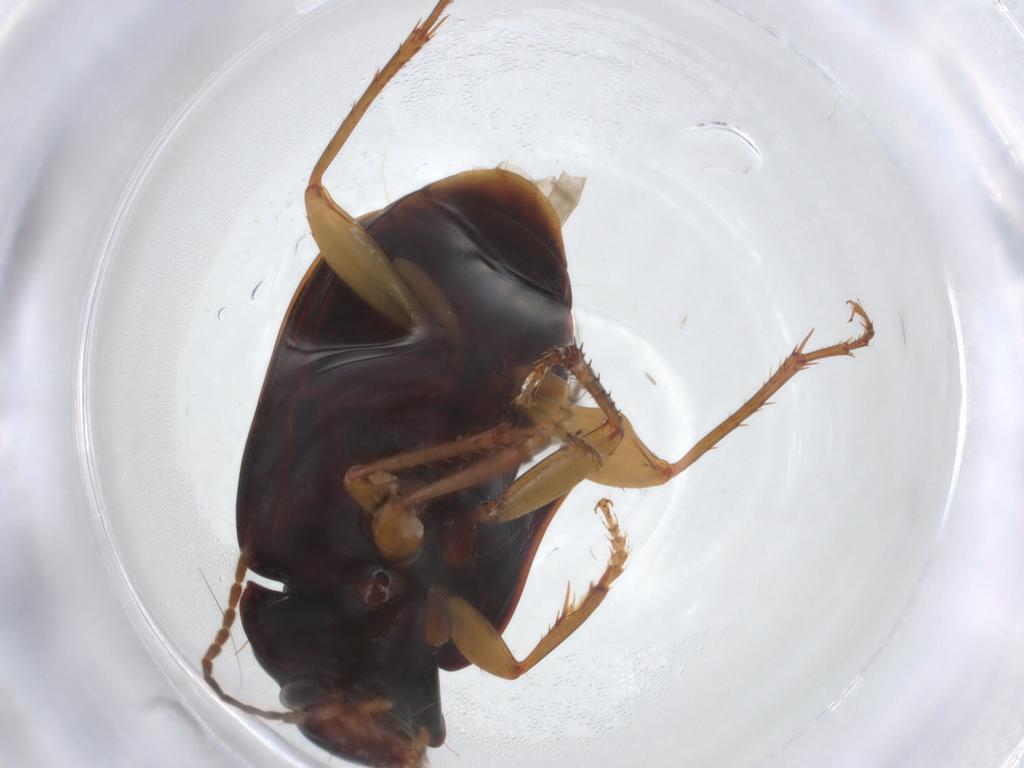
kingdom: Animalia
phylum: Arthropoda
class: Insecta
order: Coleoptera
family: Carabidae
